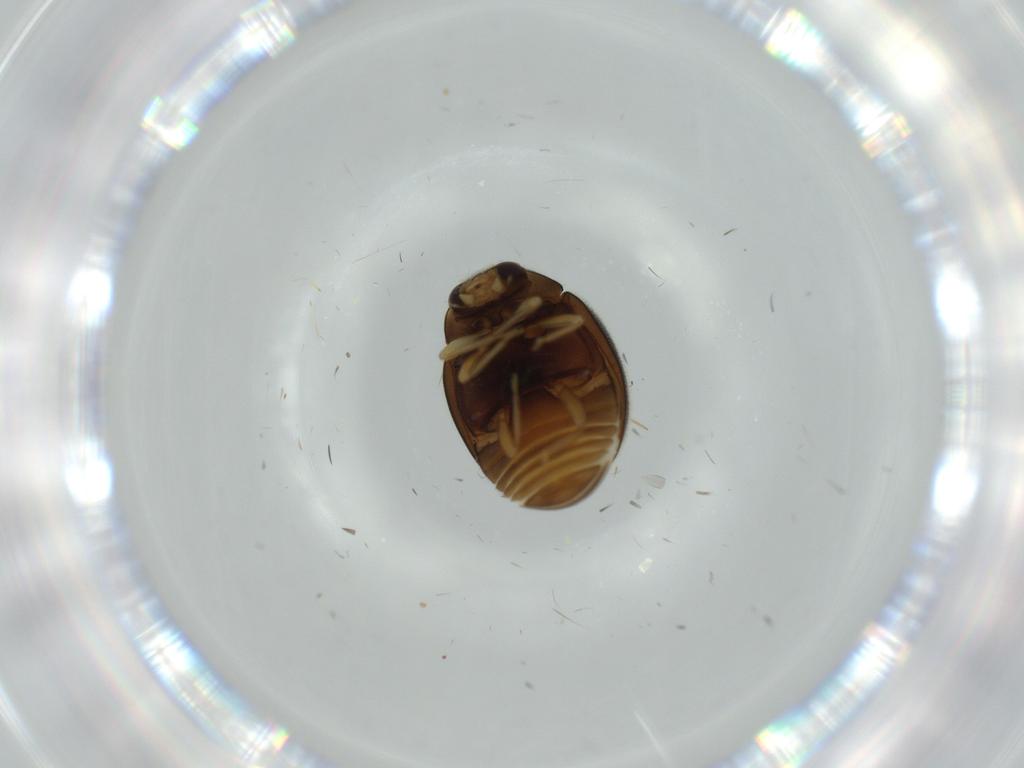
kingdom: Animalia
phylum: Arthropoda
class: Insecta
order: Coleoptera
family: Coccinellidae
